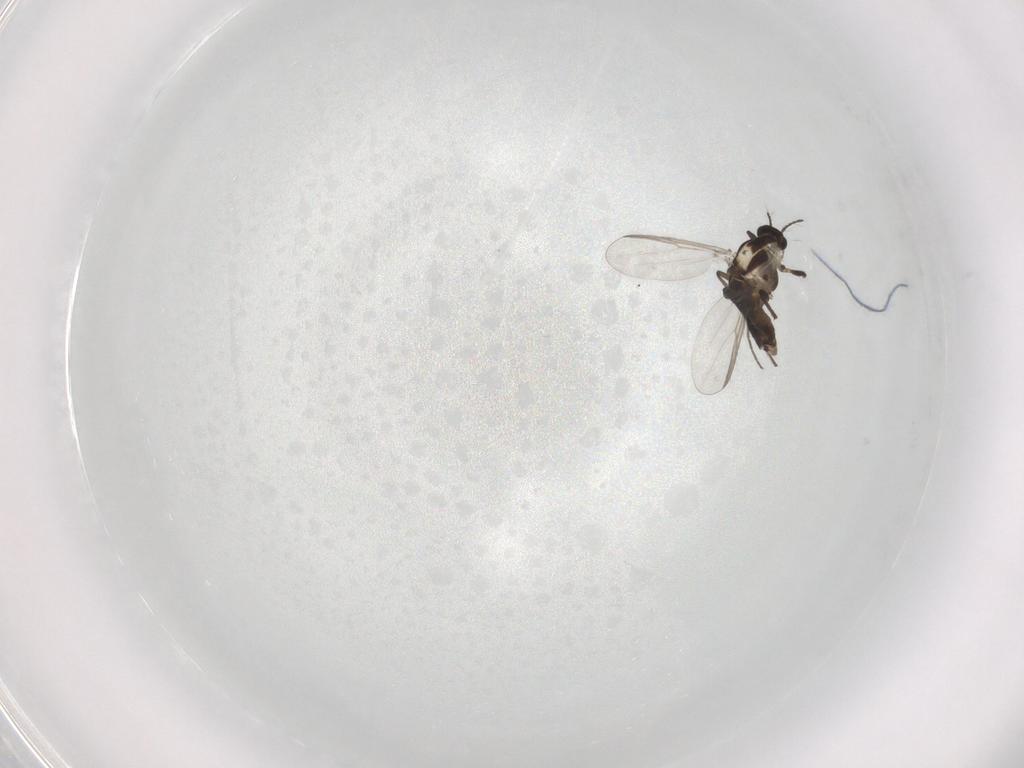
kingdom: Animalia
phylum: Arthropoda
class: Insecta
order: Diptera
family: Chironomidae
